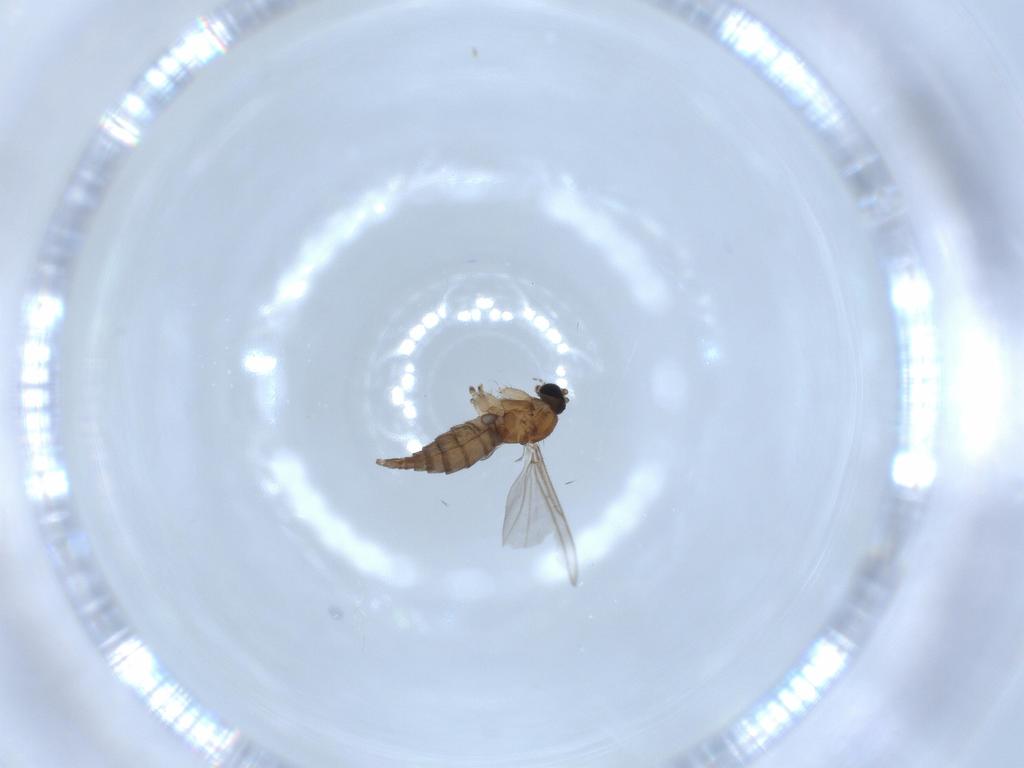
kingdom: Animalia
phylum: Arthropoda
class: Insecta
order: Diptera
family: Sciaridae
